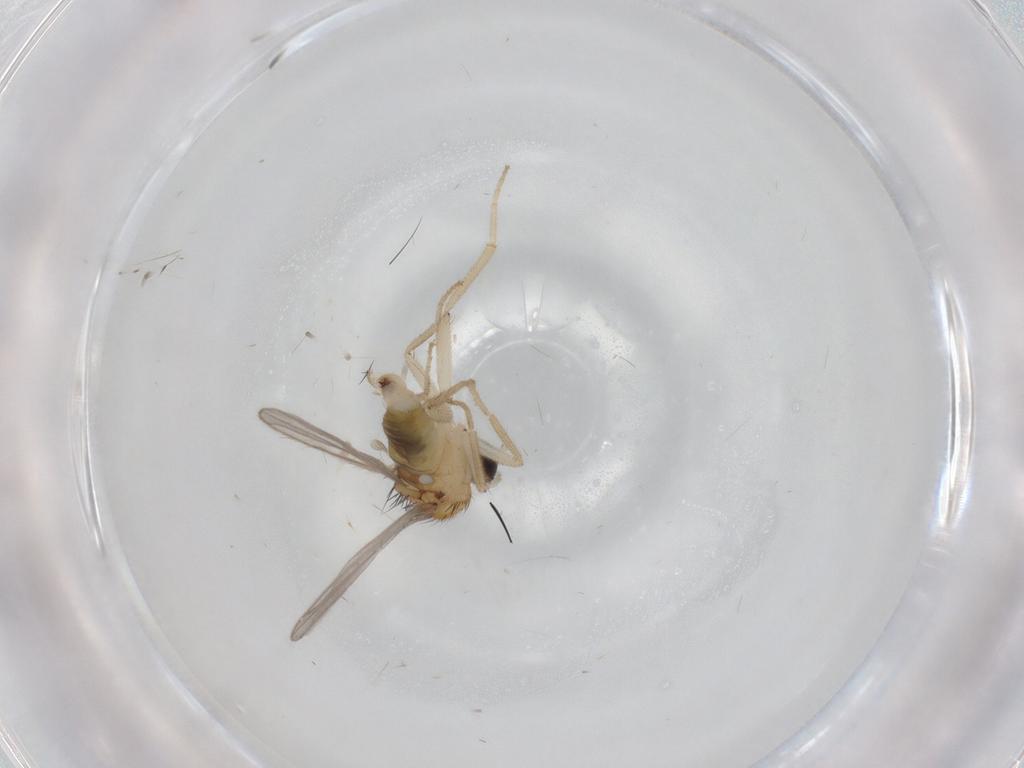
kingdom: Animalia
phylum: Arthropoda
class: Insecta
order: Diptera
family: Hybotidae
